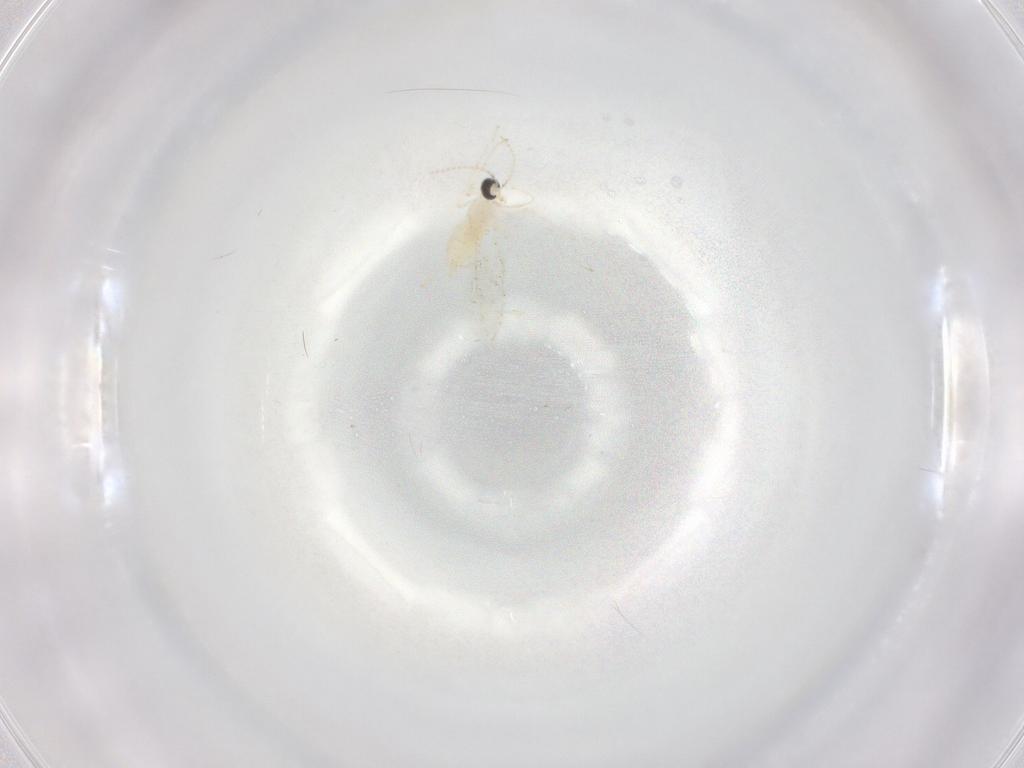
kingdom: Animalia
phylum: Arthropoda
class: Insecta
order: Diptera
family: Cecidomyiidae
